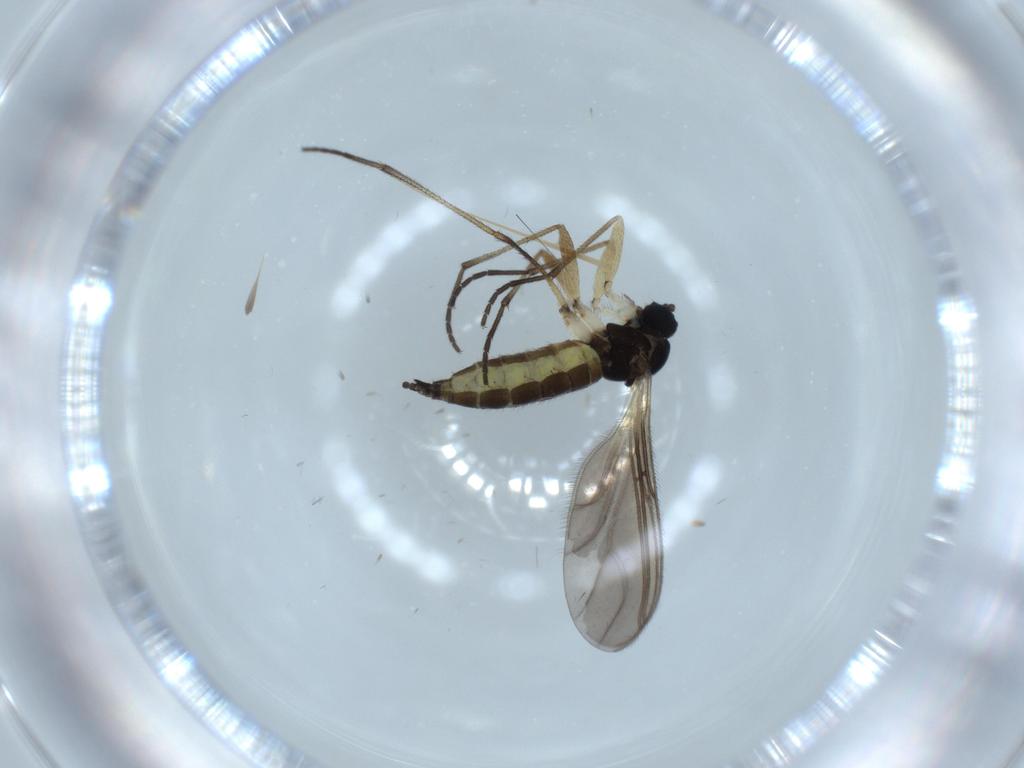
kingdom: Animalia
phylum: Arthropoda
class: Insecta
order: Diptera
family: Sciaridae
